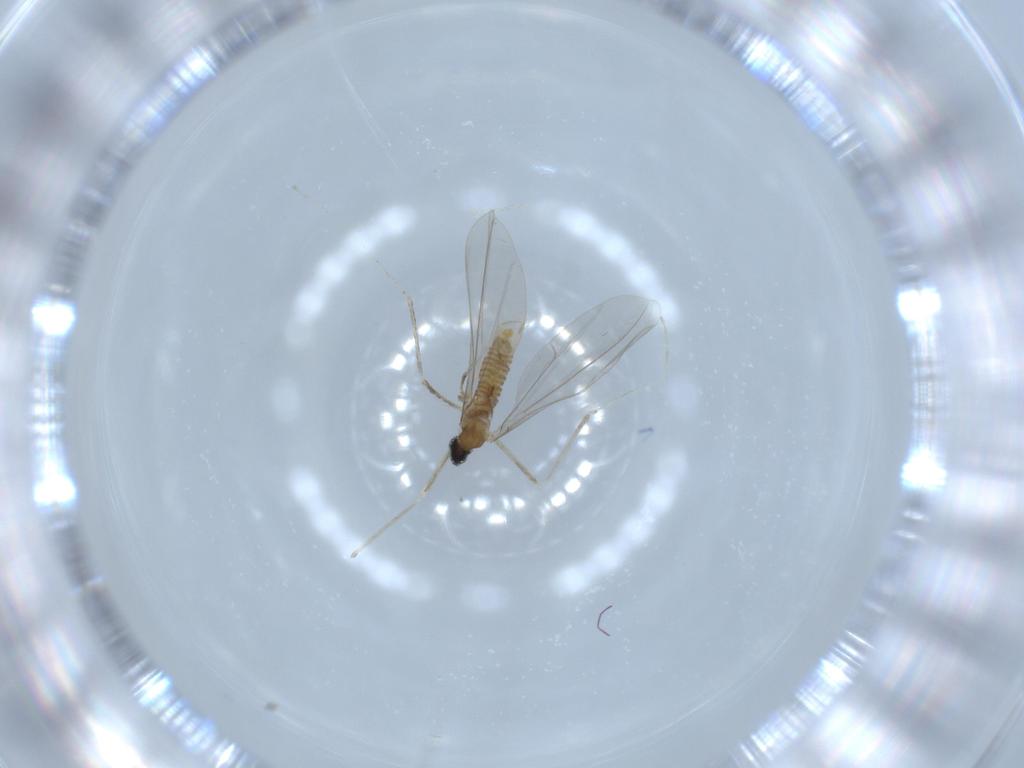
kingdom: Animalia
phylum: Arthropoda
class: Insecta
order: Diptera
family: Cecidomyiidae
